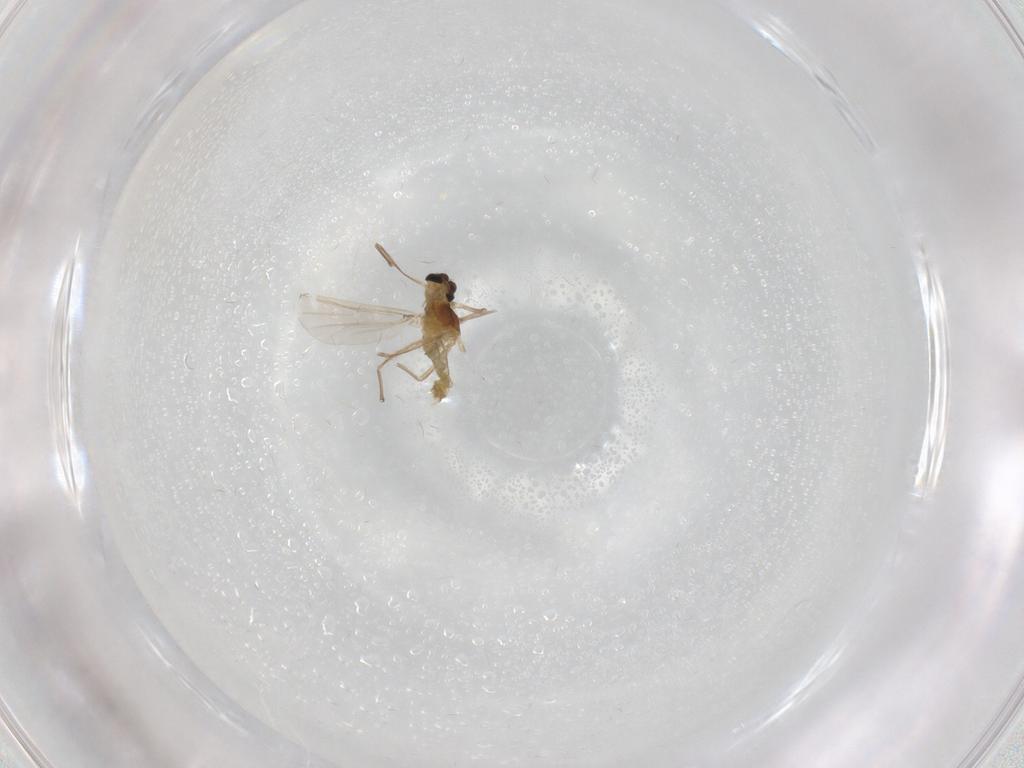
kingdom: Animalia
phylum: Arthropoda
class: Insecta
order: Diptera
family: Chironomidae
